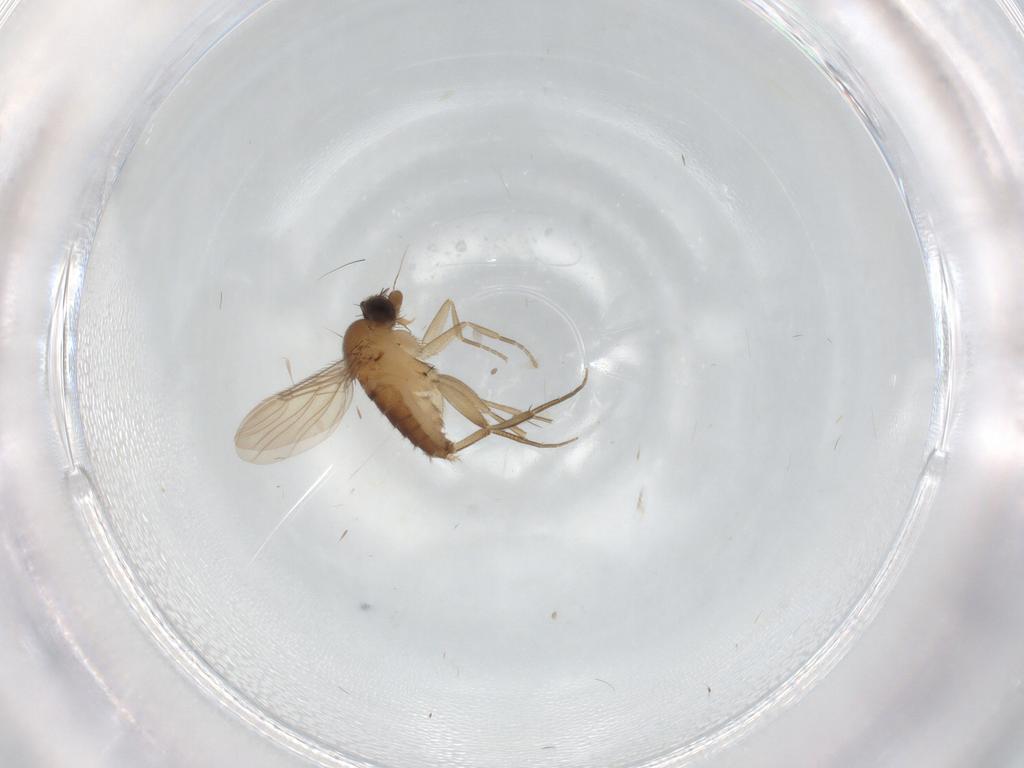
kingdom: Animalia
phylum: Arthropoda
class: Insecta
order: Diptera
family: Phoridae
